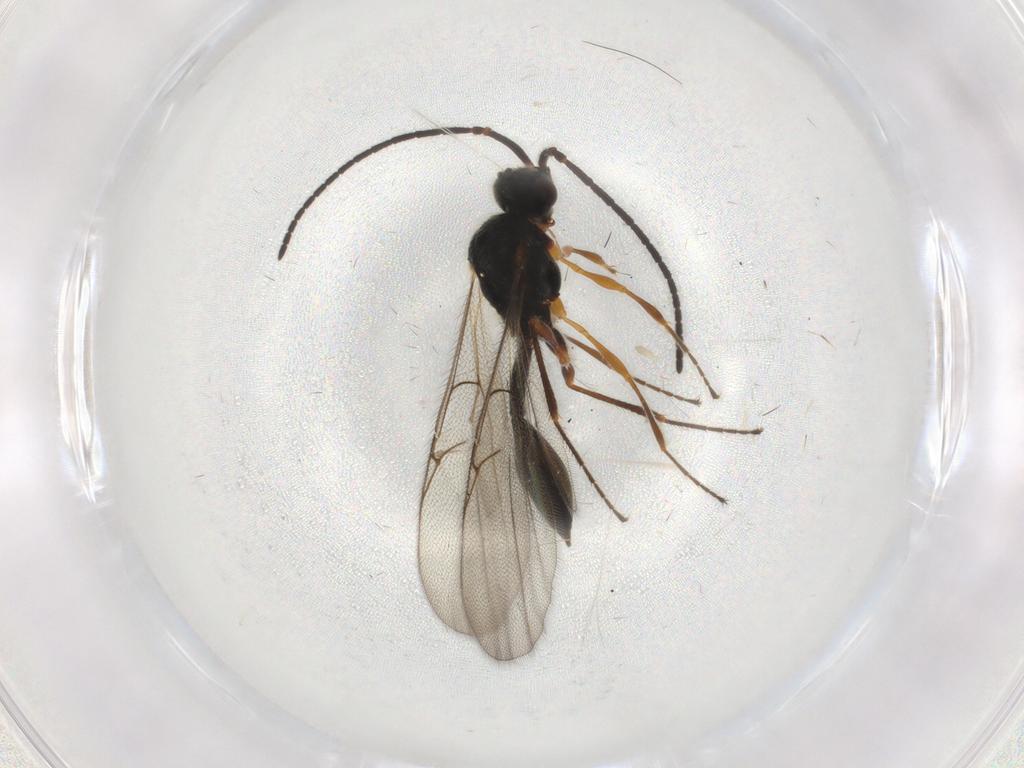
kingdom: Animalia
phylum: Arthropoda
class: Insecta
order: Hymenoptera
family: Diapriidae
